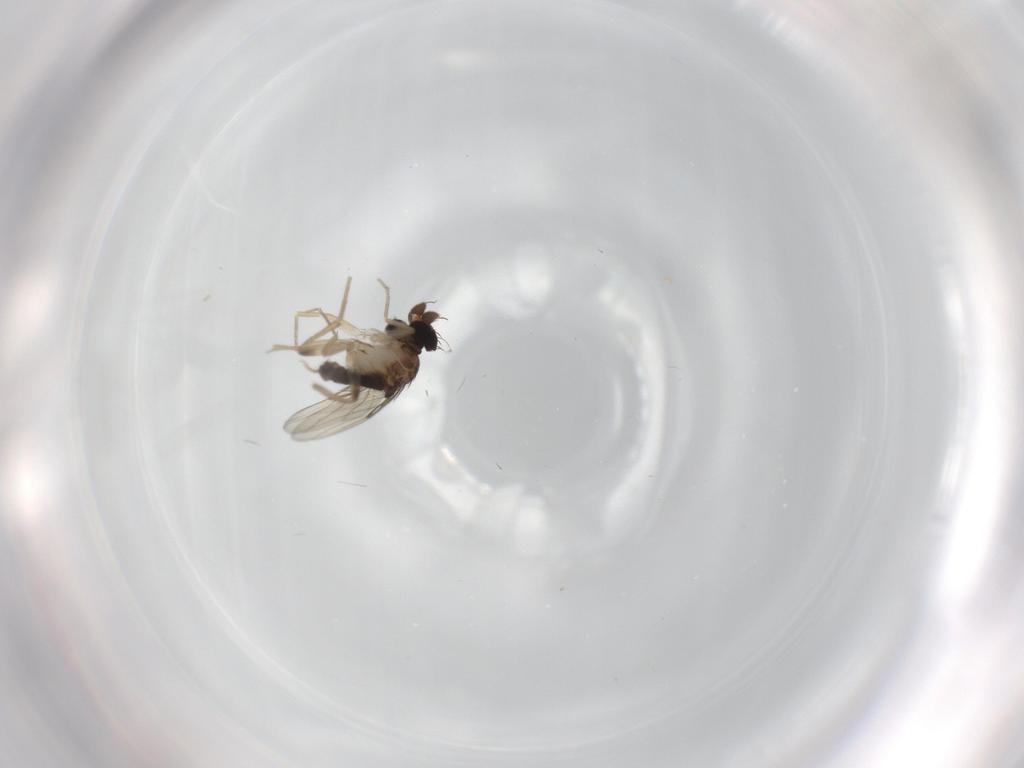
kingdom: Animalia
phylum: Arthropoda
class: Insecta
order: Diptera
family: Phoridae
